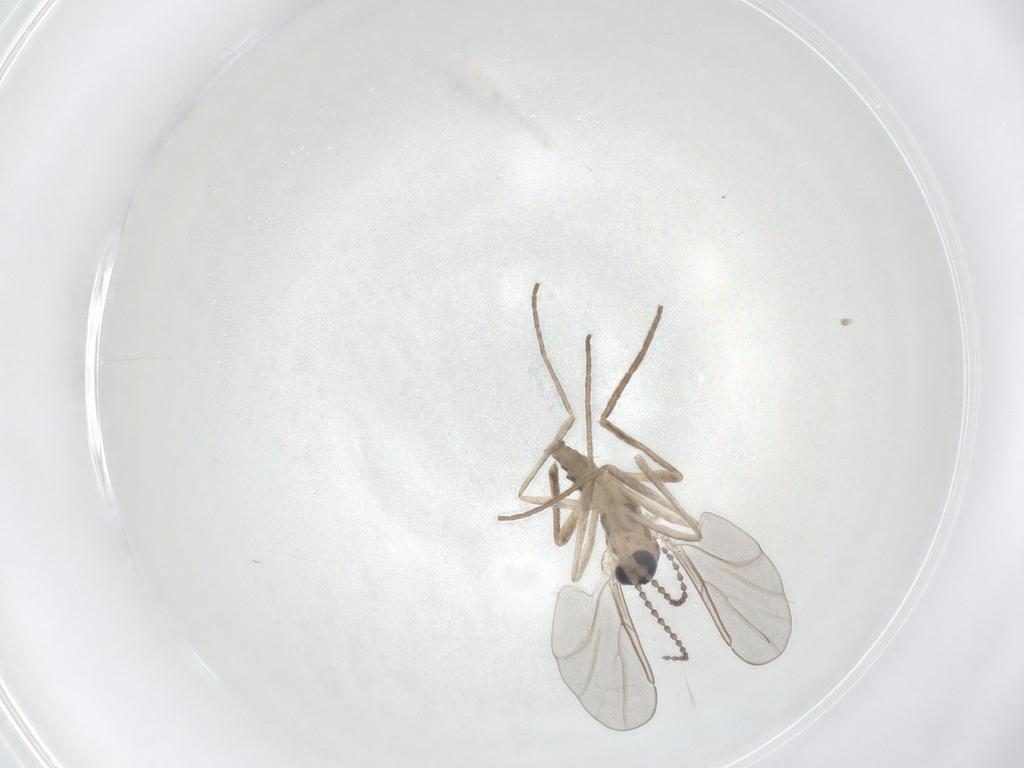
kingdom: Animalia
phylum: Arthropoda
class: Insecta
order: Diptera
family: Cecidomyiidae
